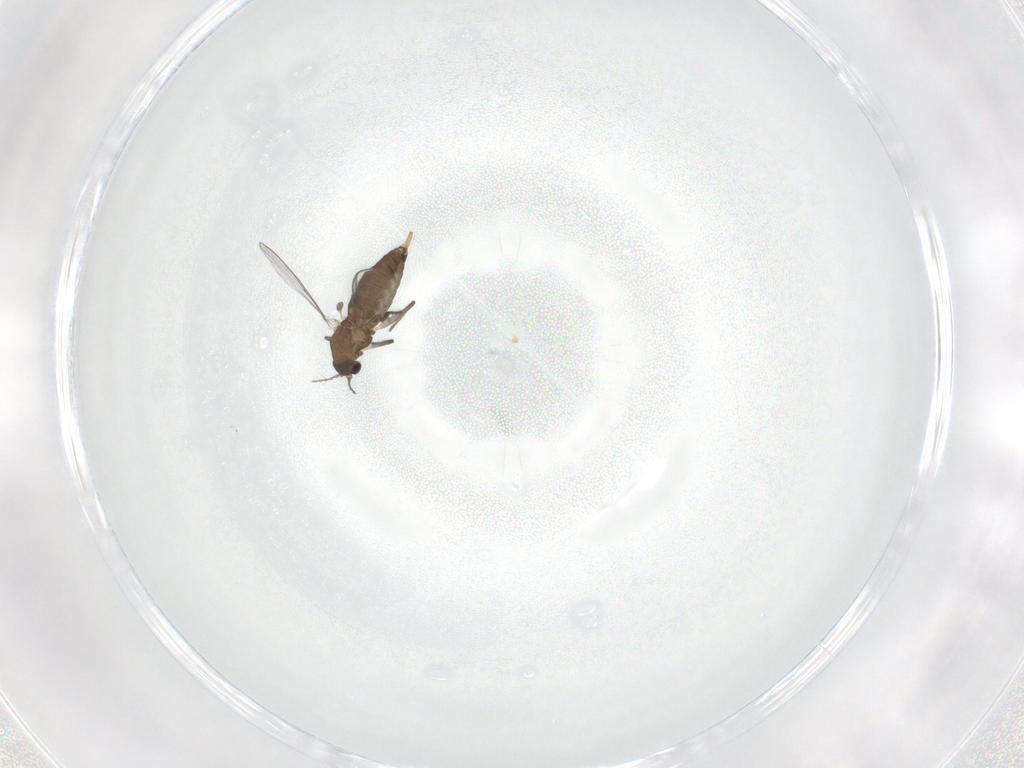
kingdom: Animalia
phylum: Arthropoda
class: Insecta
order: Diptera
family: Chironomidae
